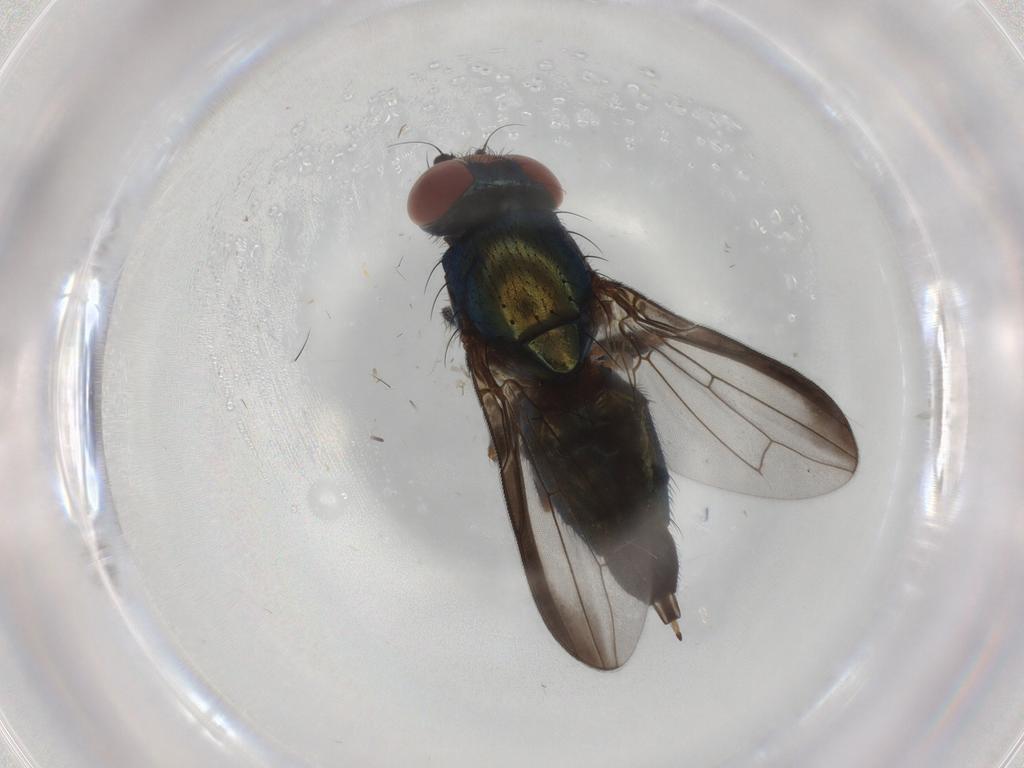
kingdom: Animalia
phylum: Arthropoda
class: Insecta
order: Diptera
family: Ulidiidae
